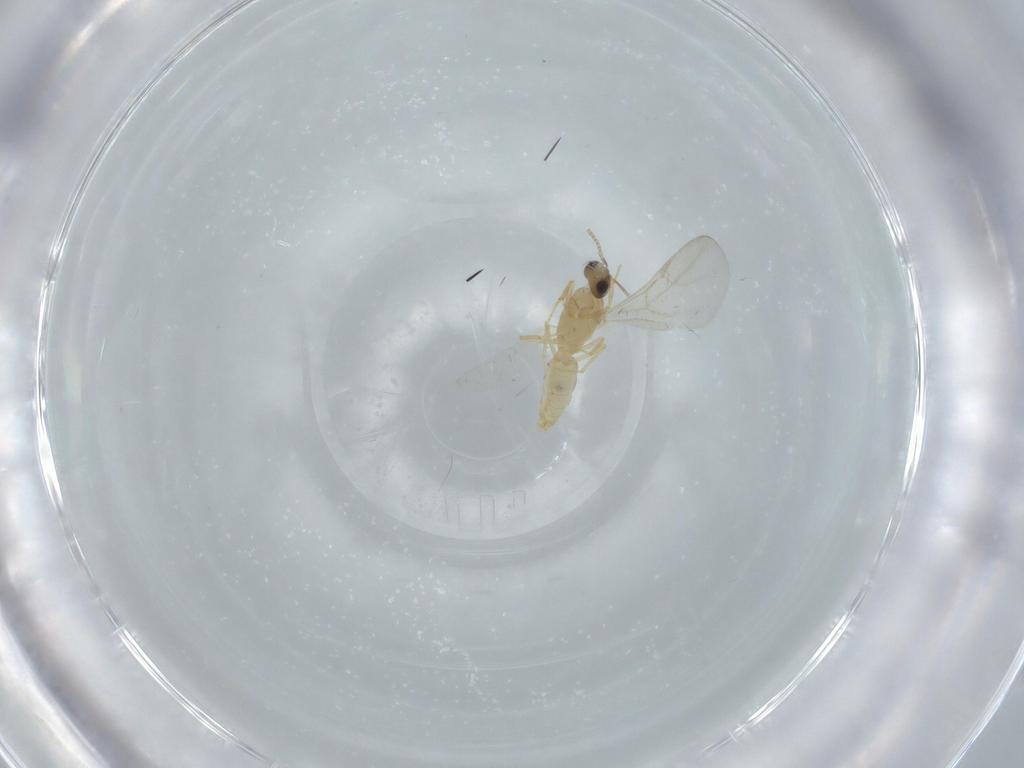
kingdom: Animalia
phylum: Arthropoda
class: Insecta
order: Hymenoptera
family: Formicidae
